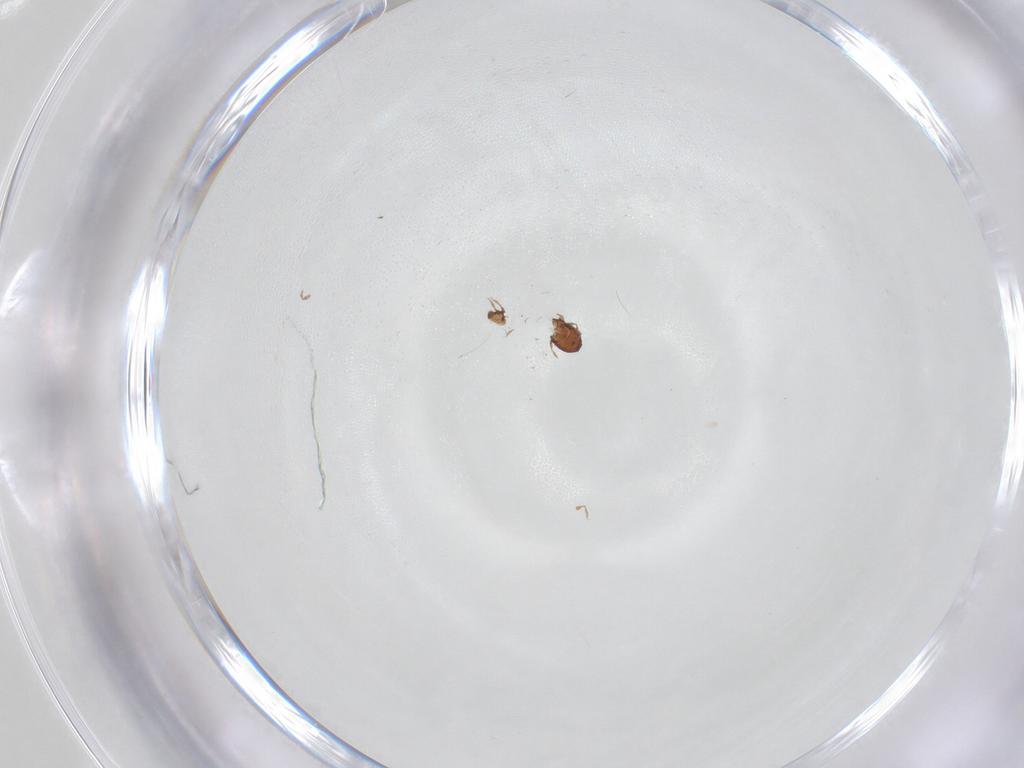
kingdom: Animalia
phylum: Arthropoda
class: Arachnida
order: Sarcoptiformes
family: Dendroeremaeidae
